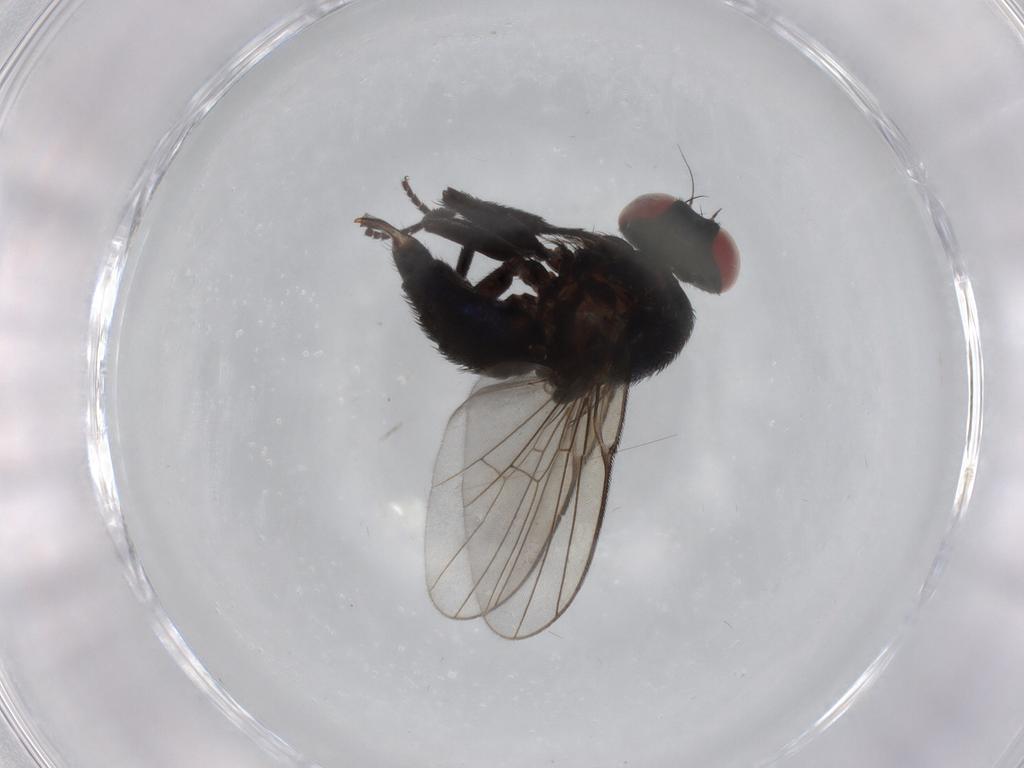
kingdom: Animalia
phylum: Arthropoda
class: Insecta
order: Diptera
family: Agromyzidae
